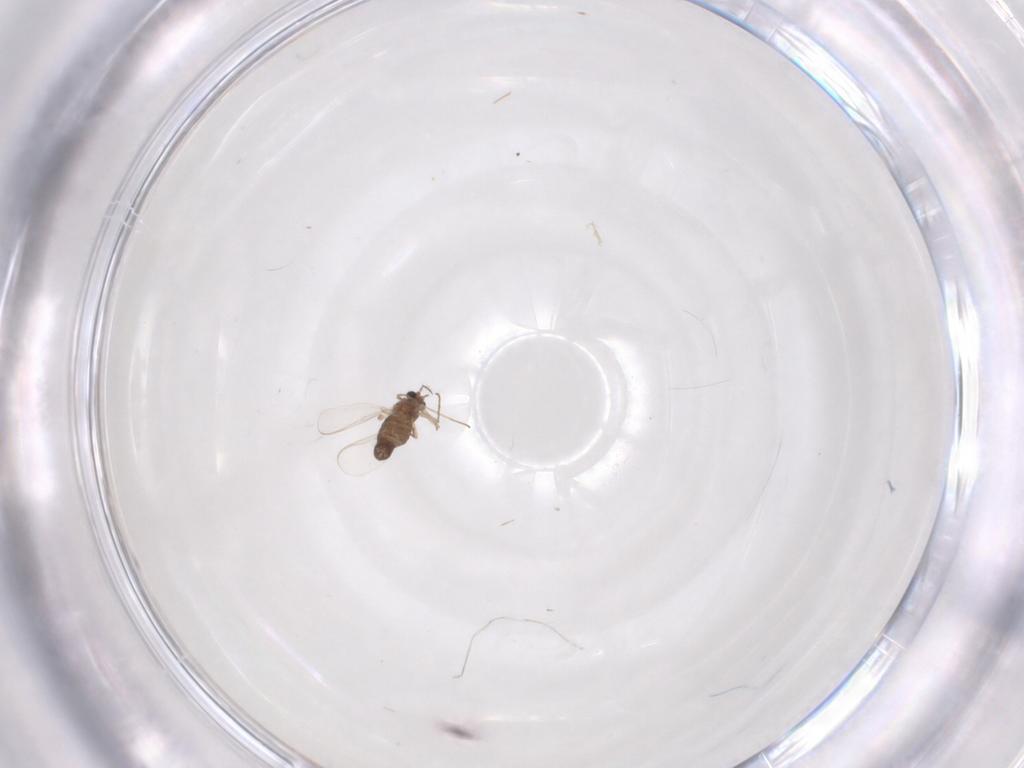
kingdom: Animalia
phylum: Arthropoda
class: Insecta
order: Diptera
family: Chironomidae
